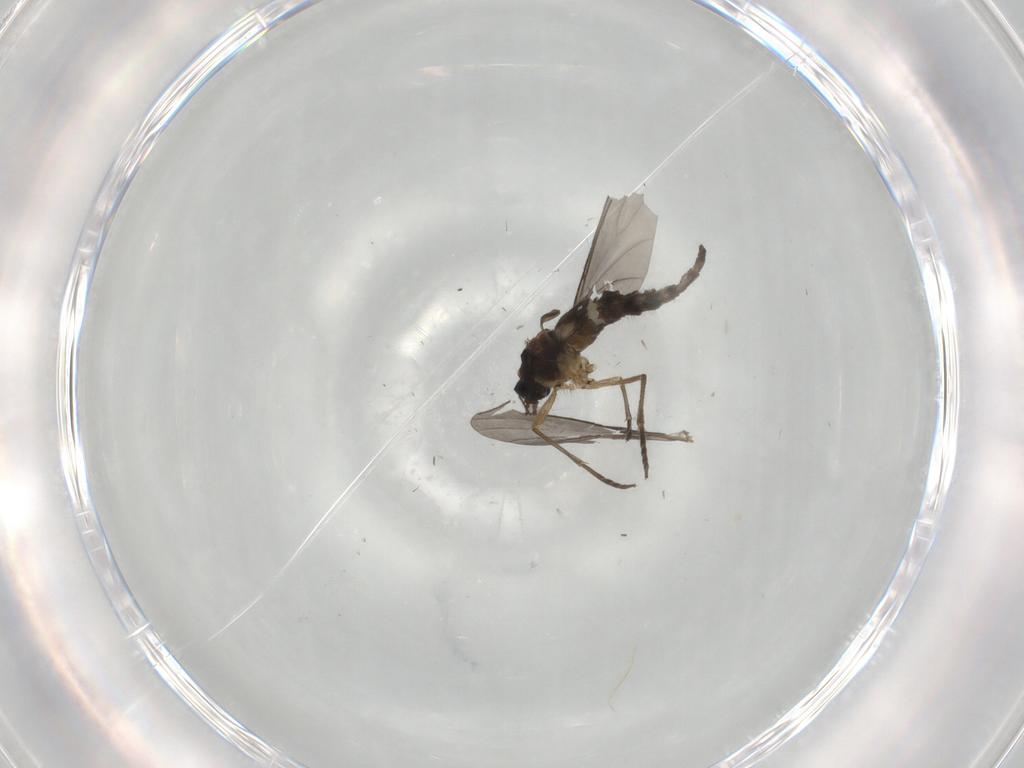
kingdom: Animalia
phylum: Arthropoda
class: Insecta
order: Diptera
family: Sciaridae
